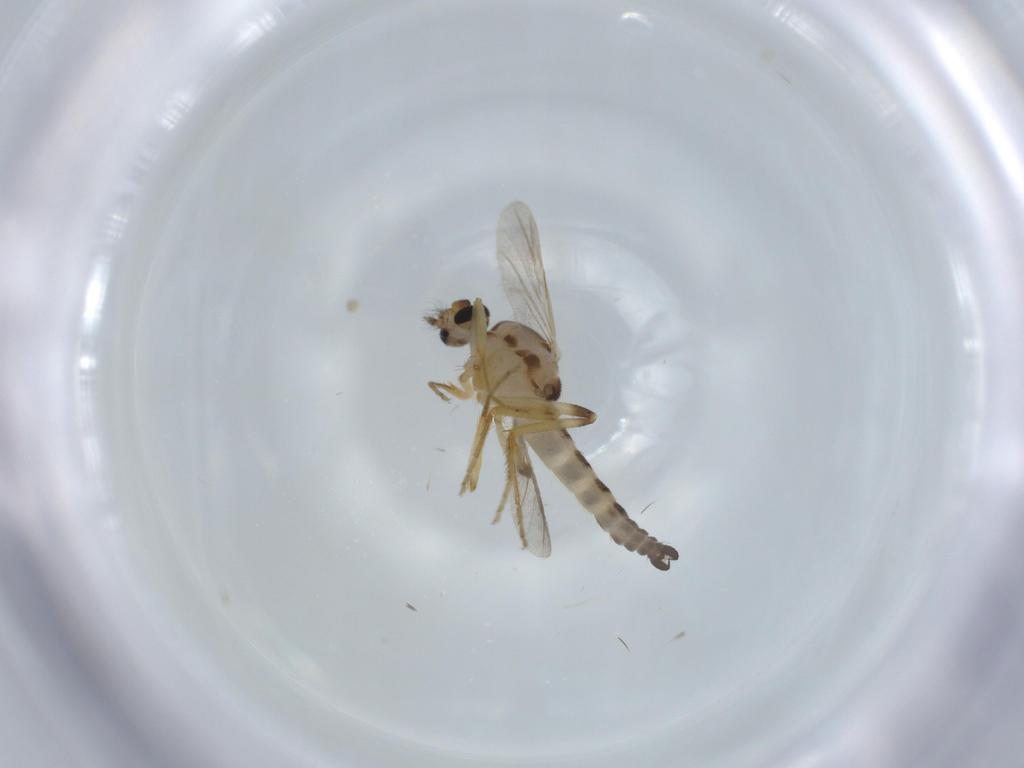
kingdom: Animalia
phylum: Arthropoda
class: Insecta
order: Diptera
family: Ceratopogonidae
